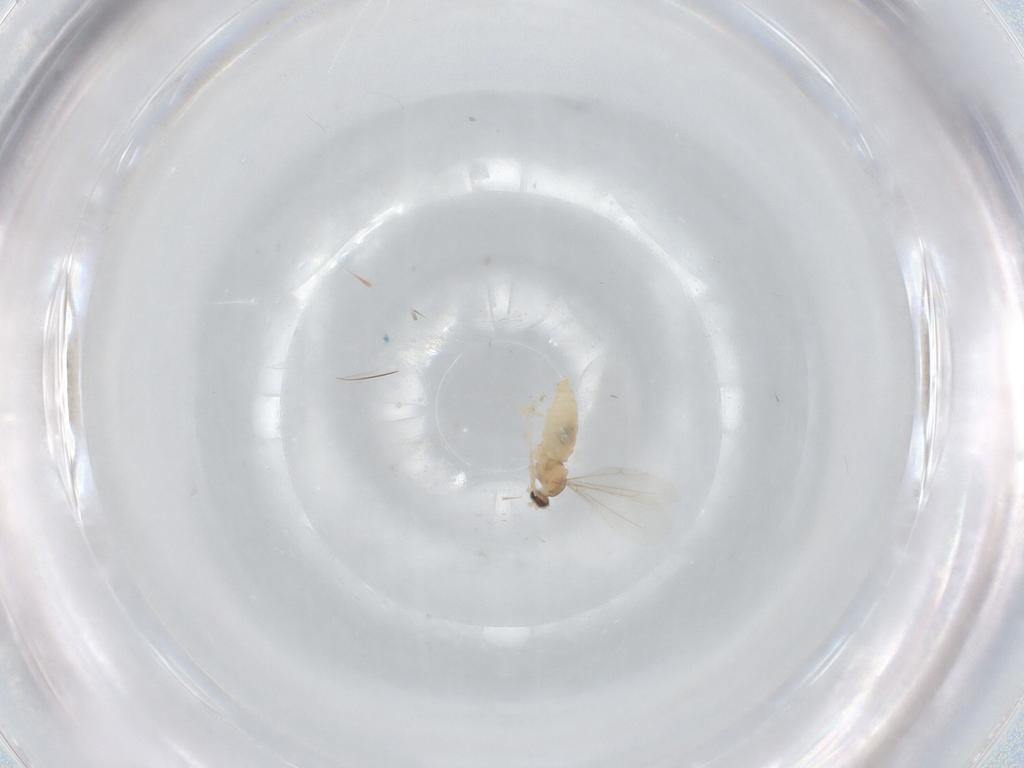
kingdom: Animalia
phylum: Arthropoda
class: Insecta
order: Diptera
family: Cecidomyiidae
